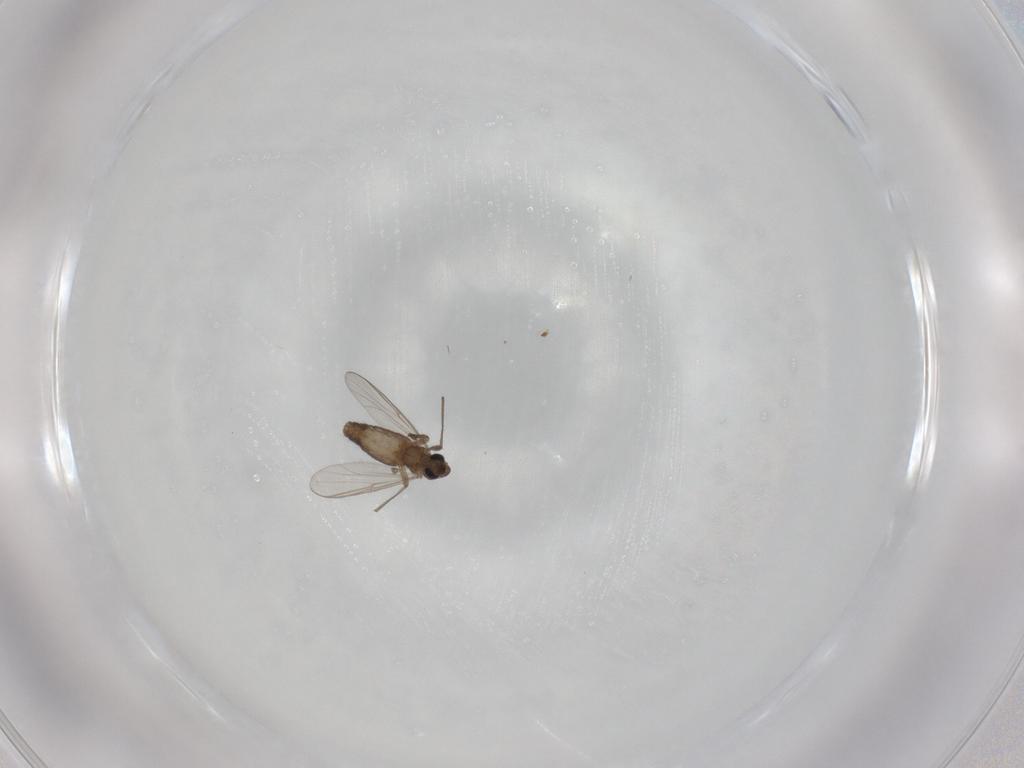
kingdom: Animalia
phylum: Arthropoda
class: Insecta
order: Diptera
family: Chironomidae
